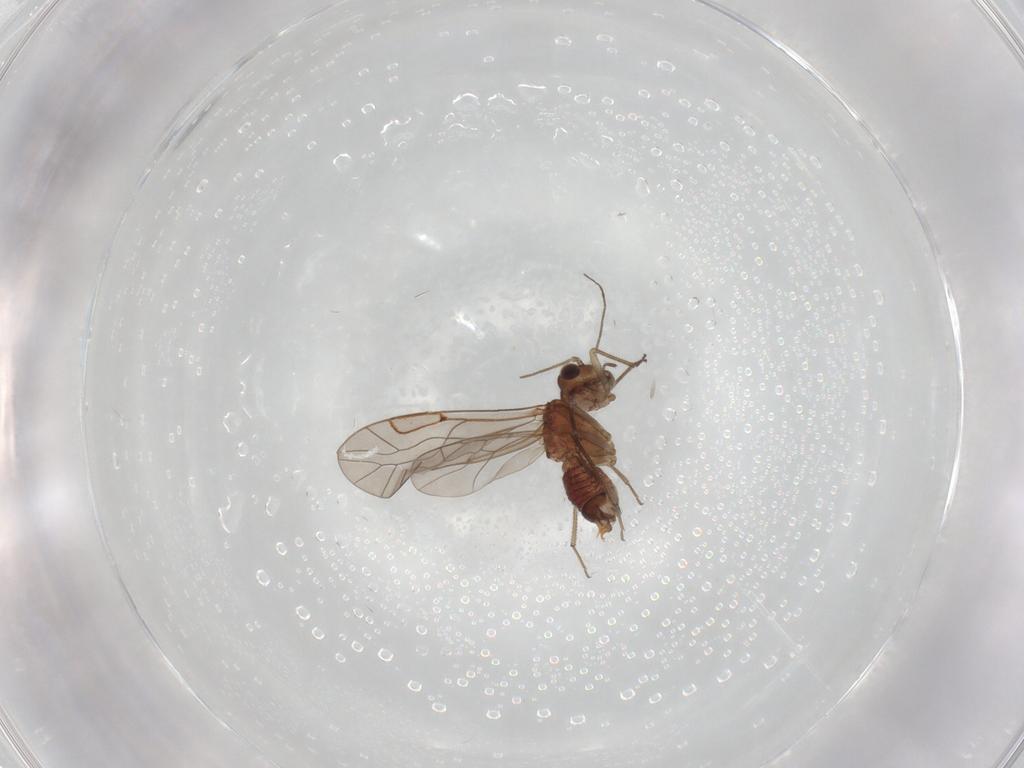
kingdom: Animalia
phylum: Arthropoda
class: Insecta
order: Psocodea
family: Lachesillidae
